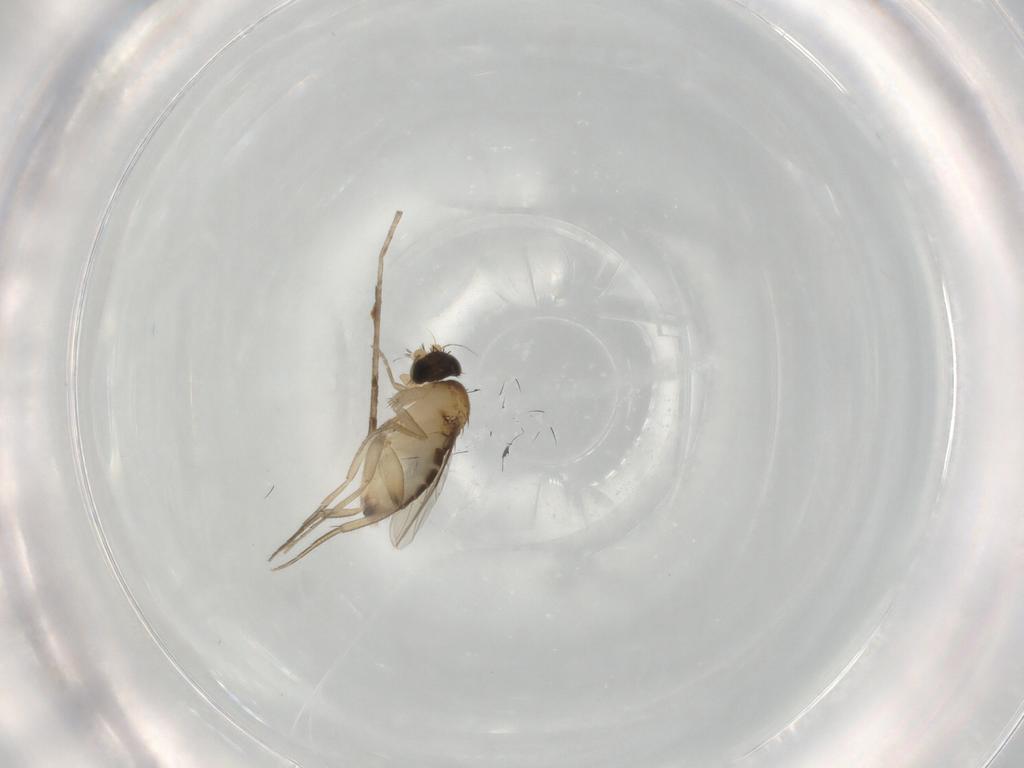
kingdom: Animalia
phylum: Arthropoda
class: Insecta
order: Diptera
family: Phoridae
